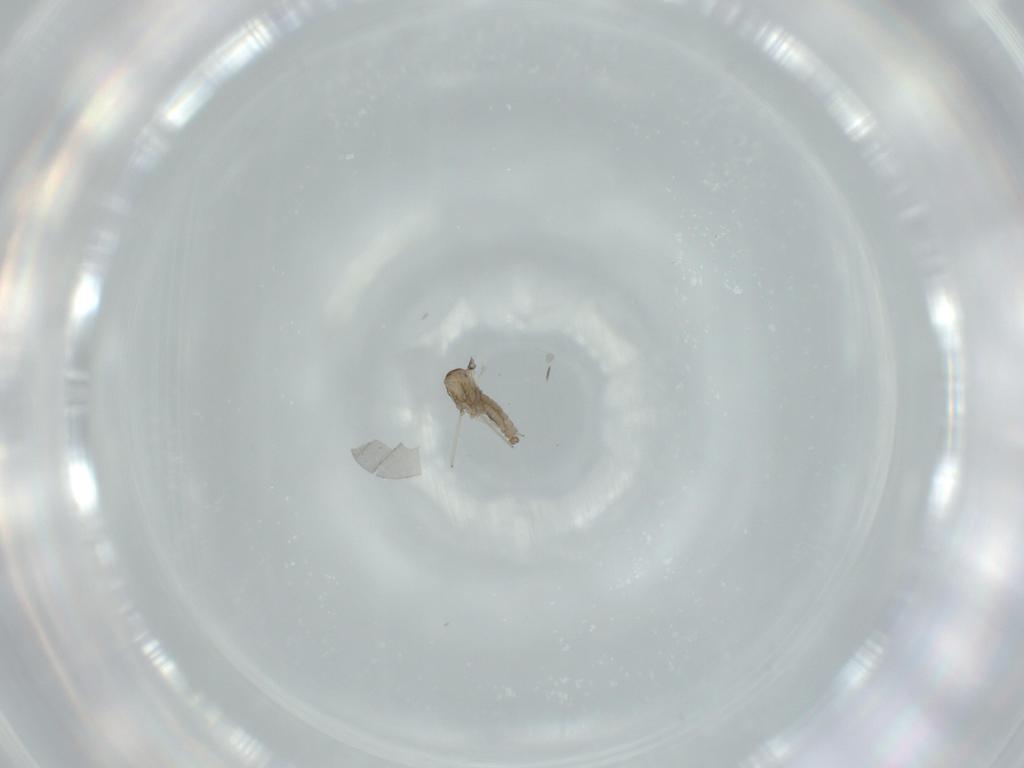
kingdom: Animalia
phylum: Arthropoda
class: Insecta
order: Diptera
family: Cecidomyiidae
